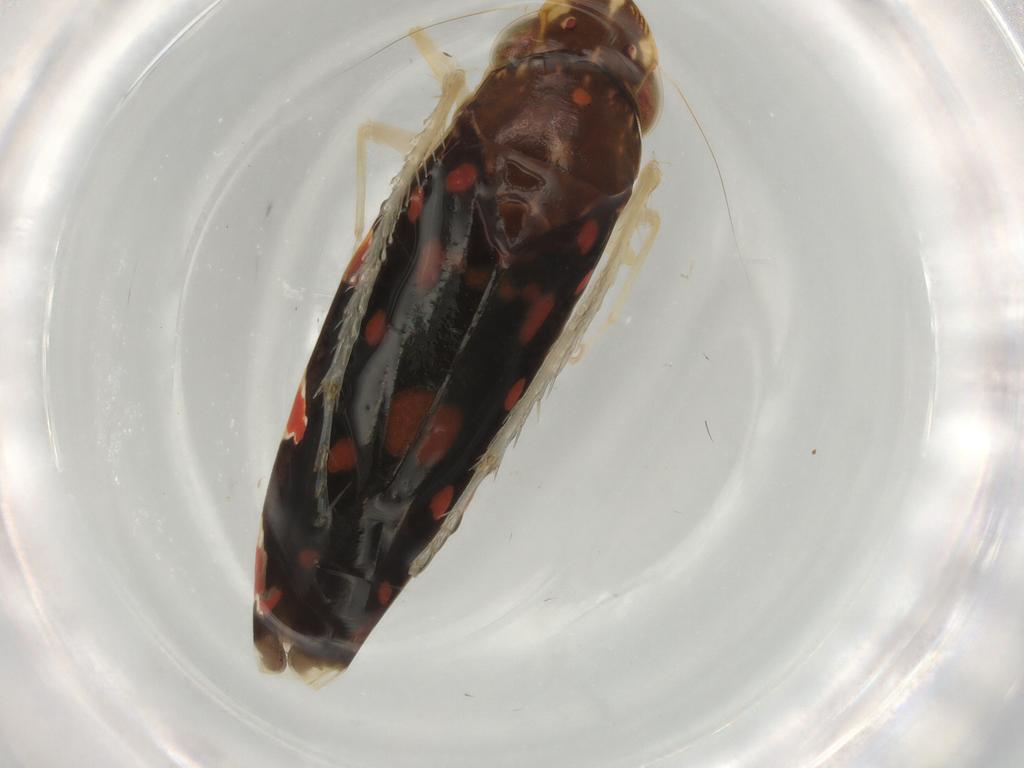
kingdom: Animalia
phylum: Arthropoda
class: Insecta
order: Hemiptera
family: Cicadellidae
